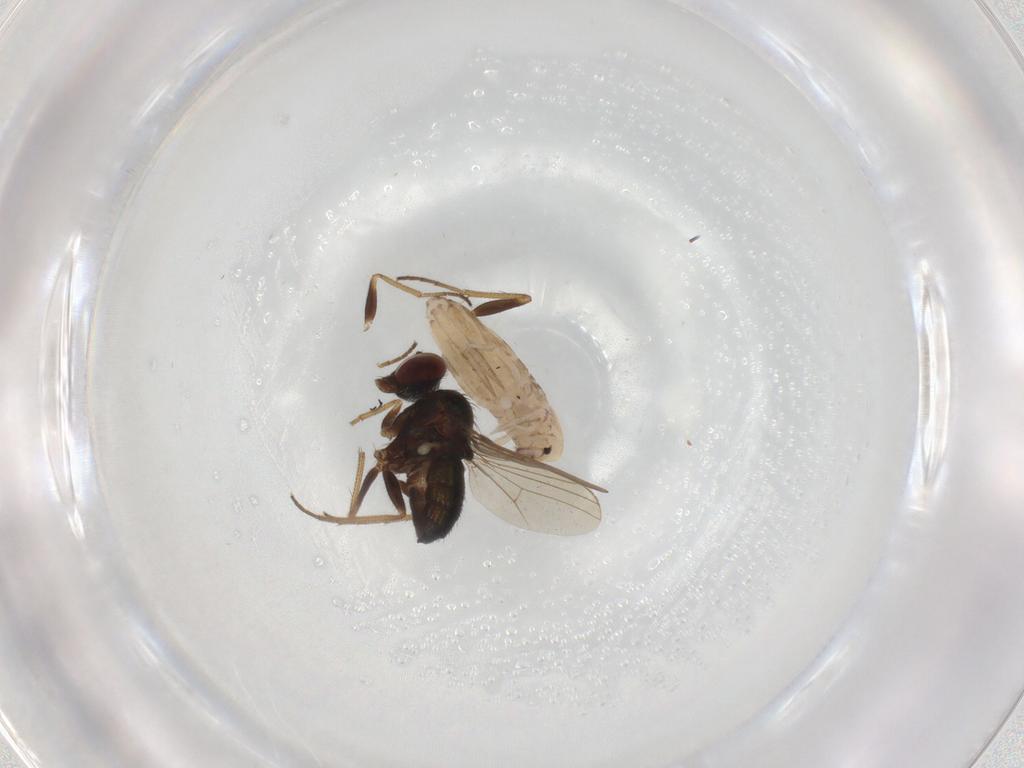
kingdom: Animalia
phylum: Arthropoda
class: Insecta
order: Diptera
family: Dolichopodidae
